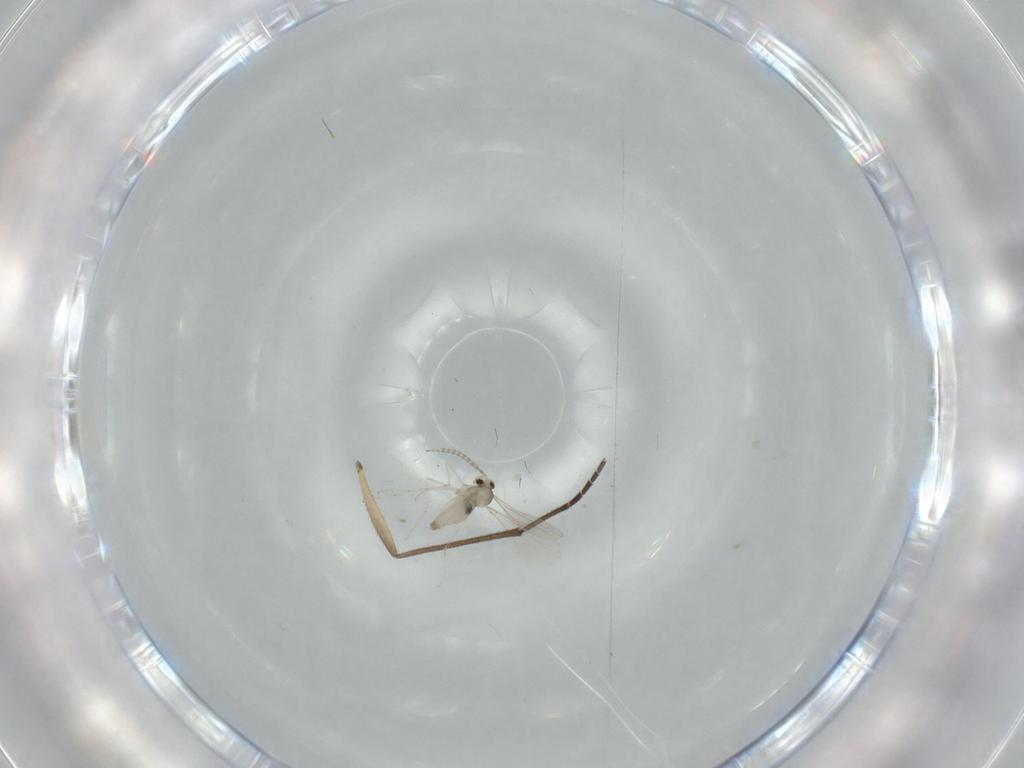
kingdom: Animalia
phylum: Arthropoda
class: Insecta
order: Diptera
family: Cecidomyiidae
